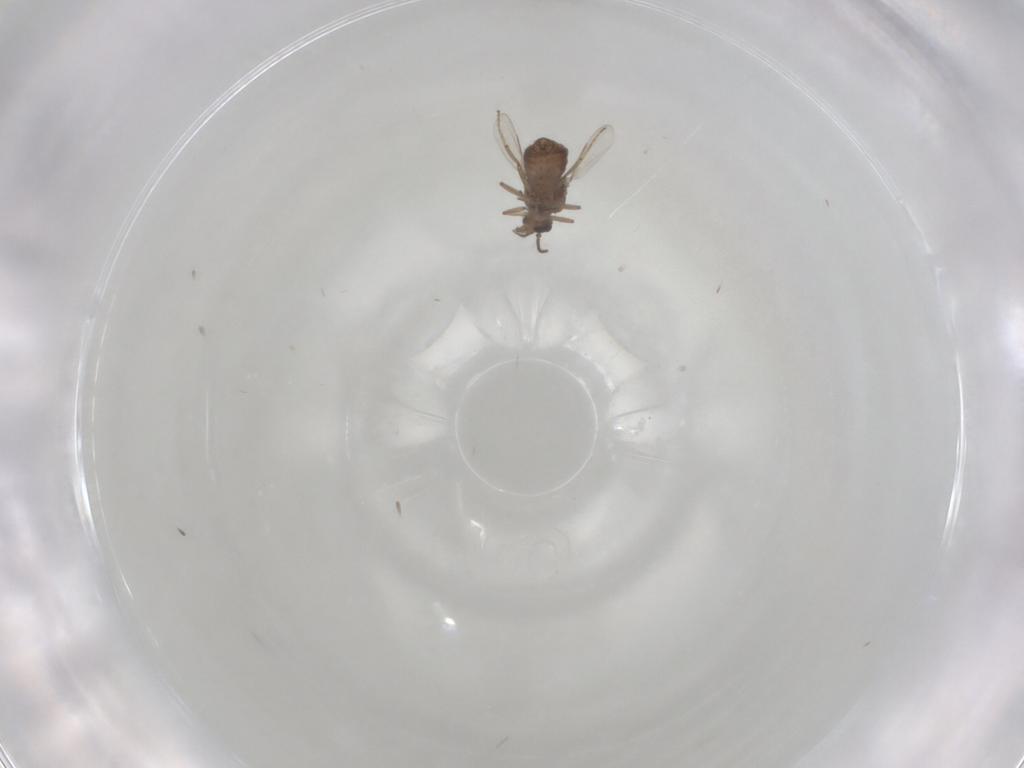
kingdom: Animalia
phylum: Arthropoda
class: Insecta
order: Diptera
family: Ceratopogonidae
